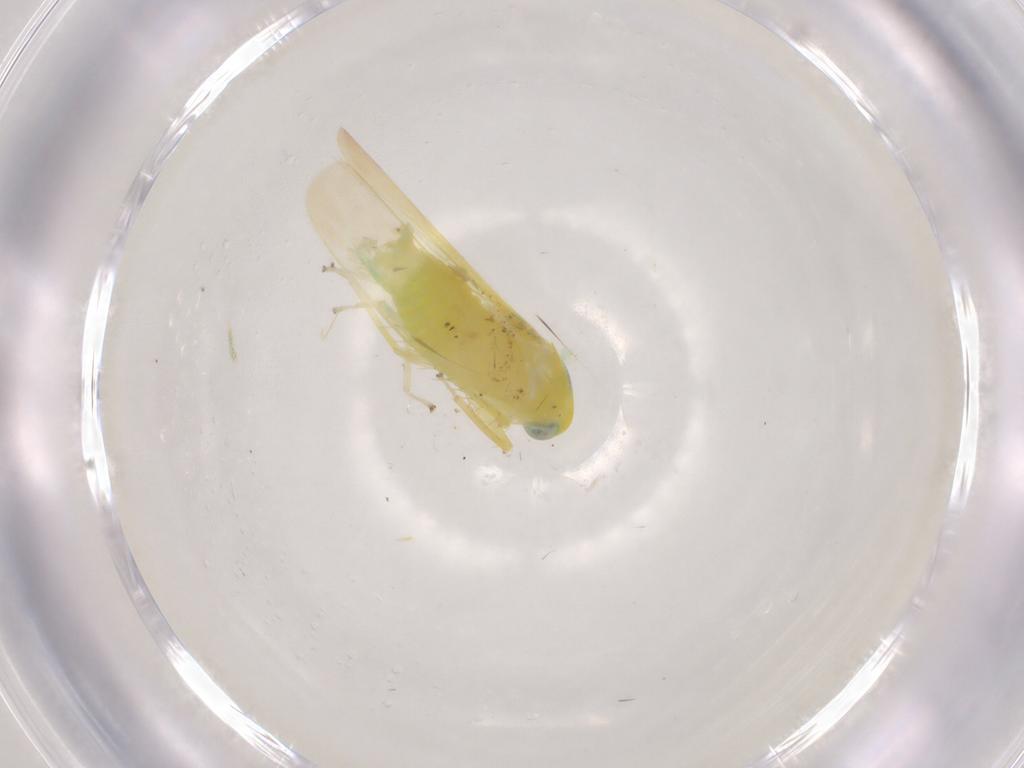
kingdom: Animalia
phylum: Arthropoda
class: Insecta
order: Hemiptera
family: Cicadellidae
